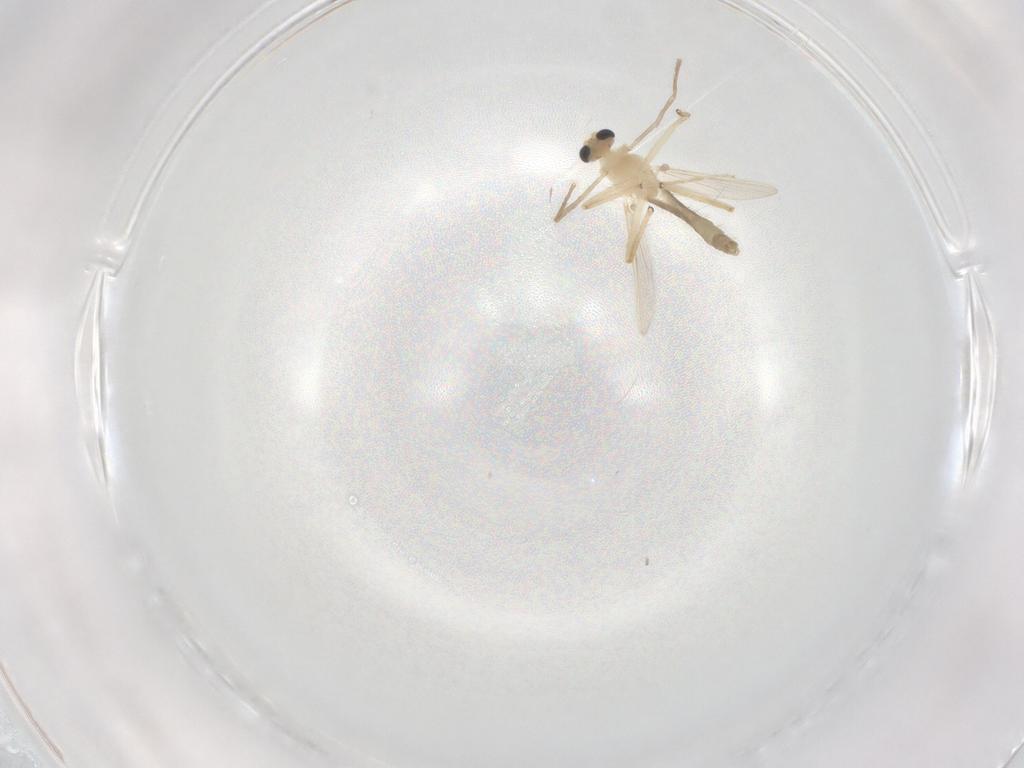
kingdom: Animalia
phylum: Arthropoda
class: Insecta
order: Diptera
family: Chironomidae
